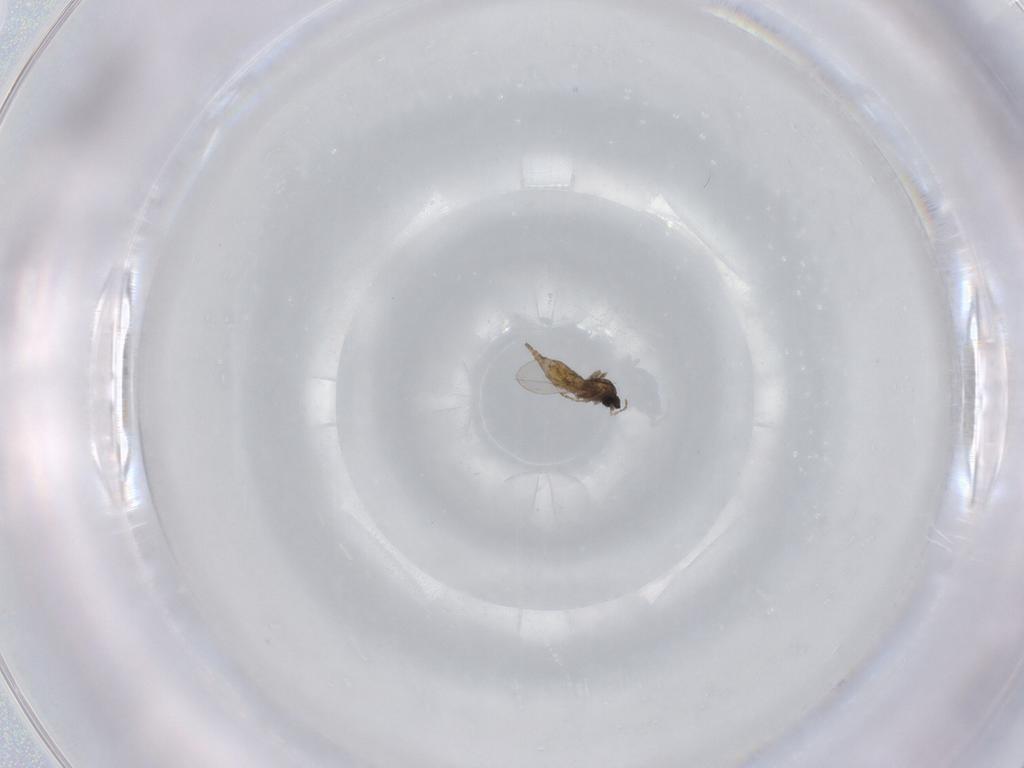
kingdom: Animalia
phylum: Arthropoda
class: Insecta
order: Diptera
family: Cecidomyiidae
